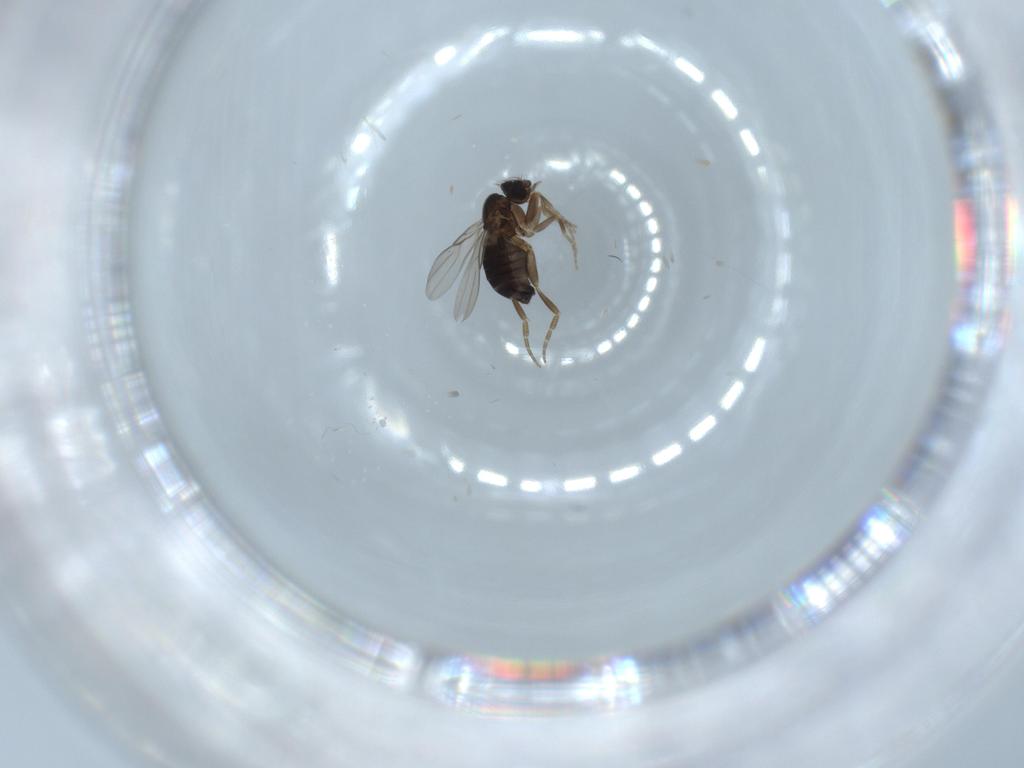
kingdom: Animalia
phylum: Arthropoda
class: Insecta
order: Diptera
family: Phoridae
